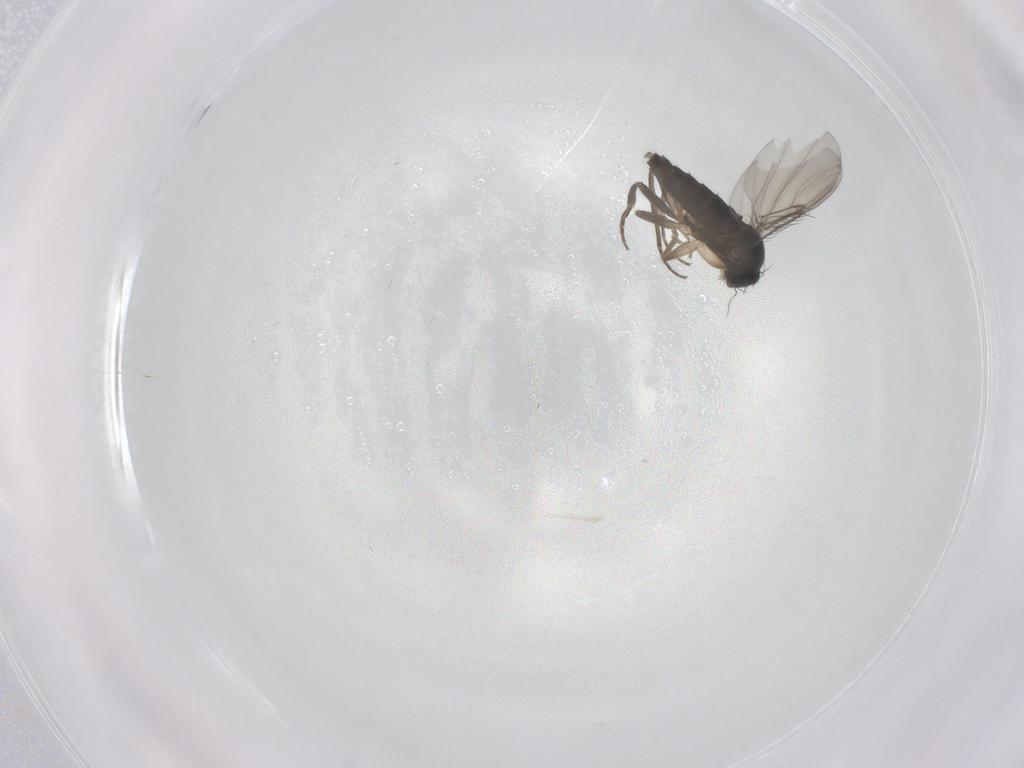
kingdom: Animalia
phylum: Arthropoda
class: Insecta
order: Diptera
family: Phoridae
